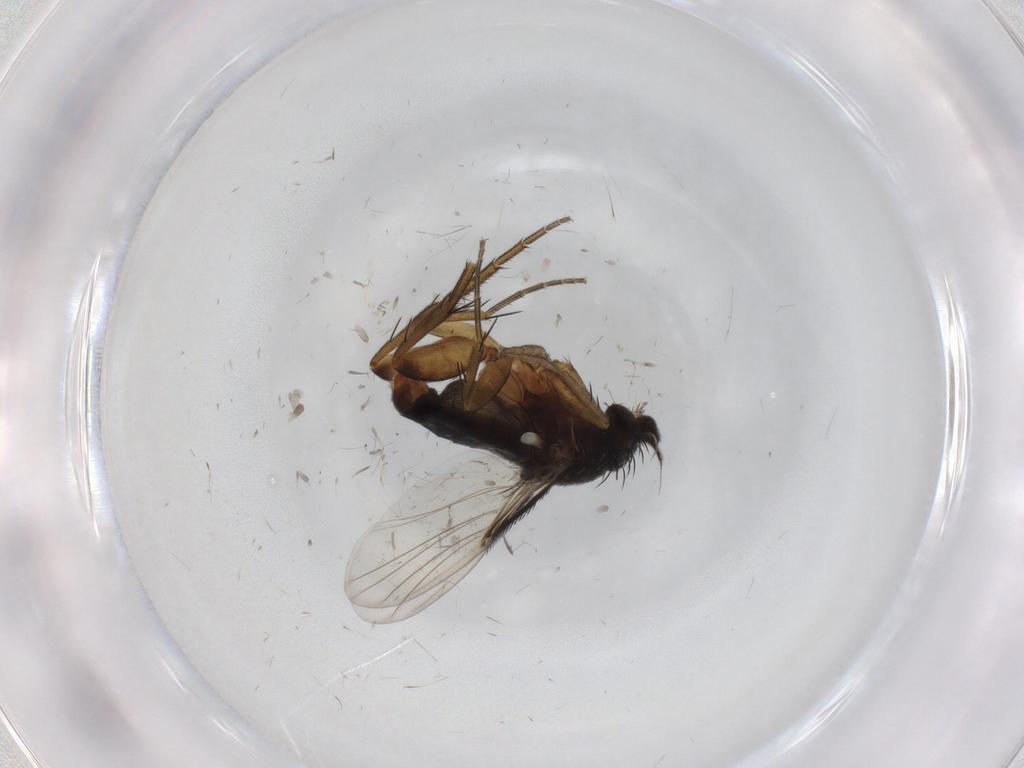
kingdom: Animalia
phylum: Arthropoda
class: Insecta
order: Diptera
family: Phoridae
